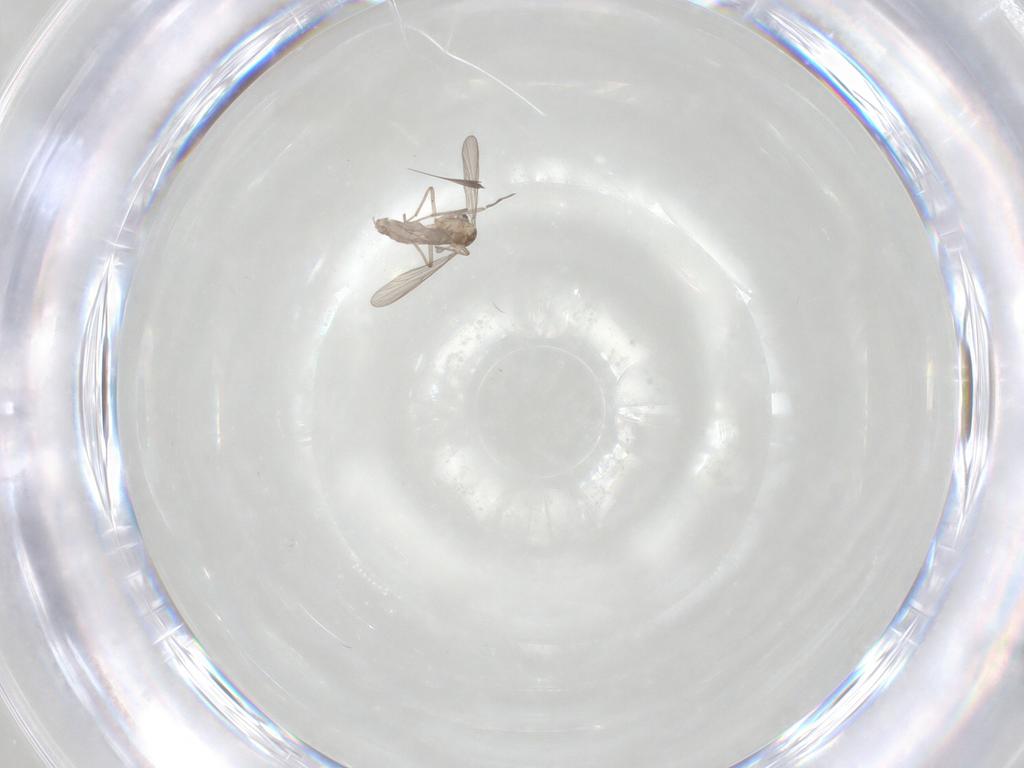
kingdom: Animalia
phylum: Arthropoda
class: Insecta
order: Diptera
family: Chironomidae
